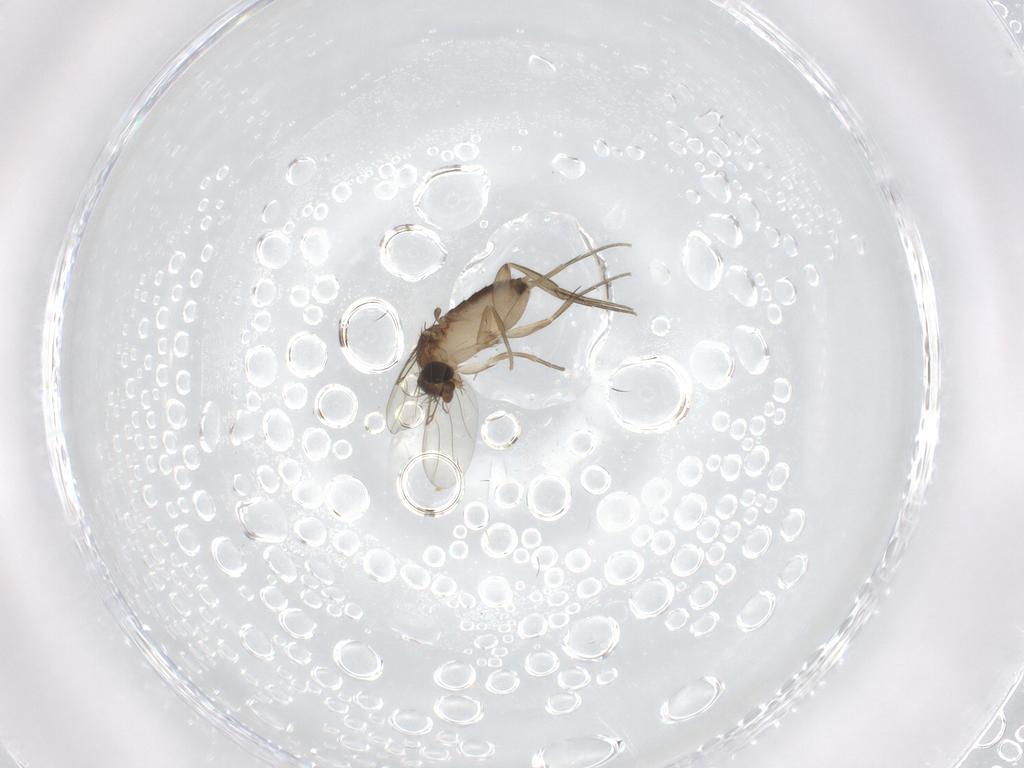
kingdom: Animalia
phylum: Arthropoda
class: Insecta
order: Diptera
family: Phoridae
